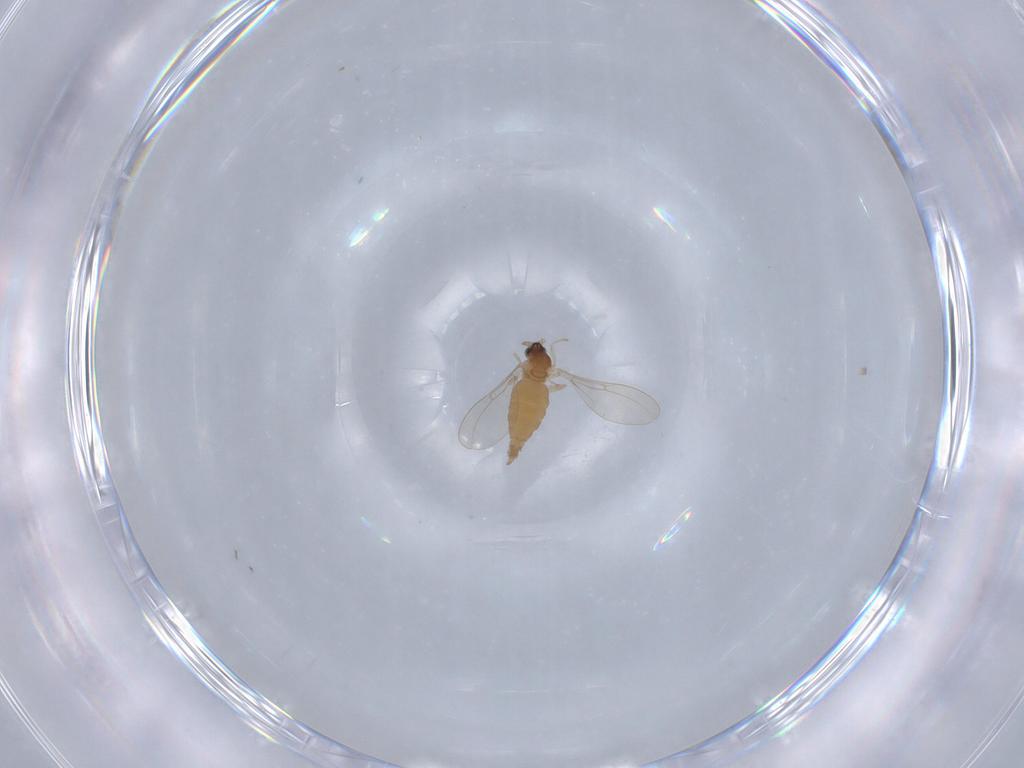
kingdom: Animalia
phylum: Arthropoda
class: Insecta
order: Diptera
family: Cecidomyiidae
